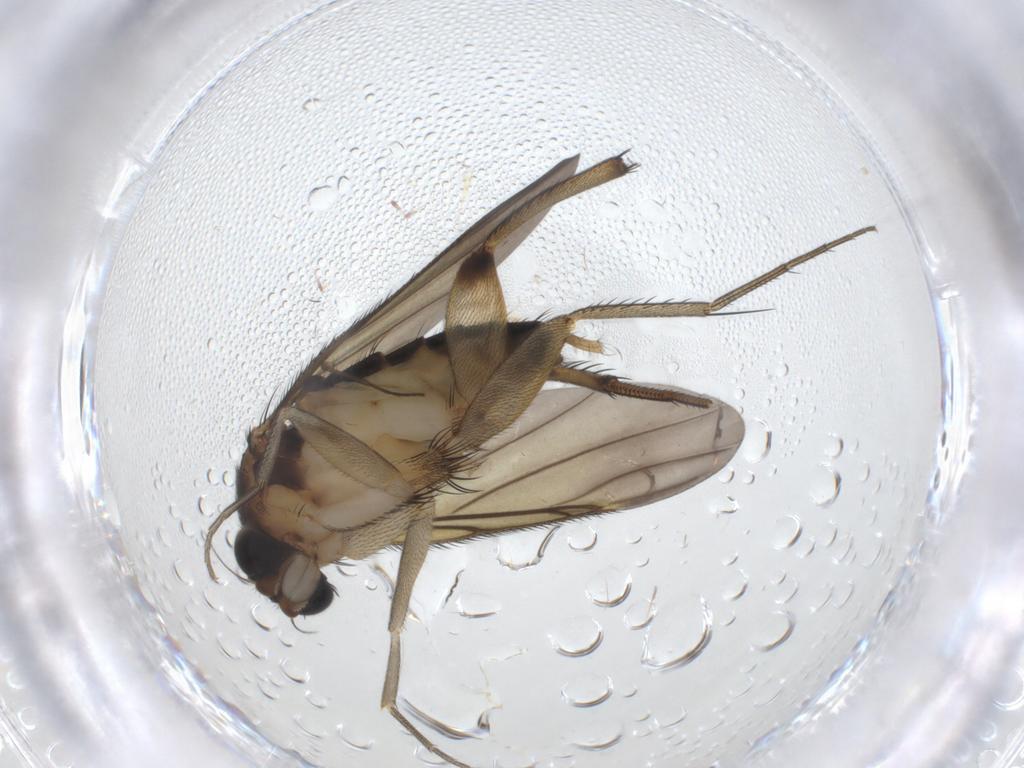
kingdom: Animalia
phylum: Arthropoda
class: Insecta
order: Diptera
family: Phoridae
